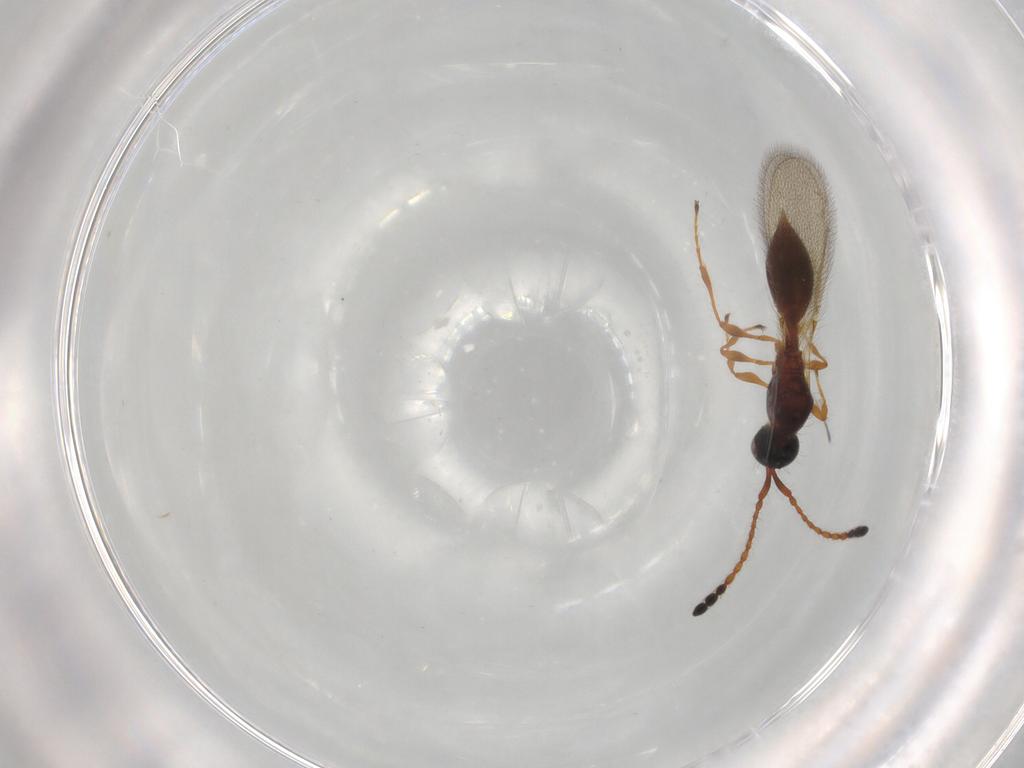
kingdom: Animalia
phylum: Arthropoda
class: Insecta
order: Hymenoptera
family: Diapriidae
